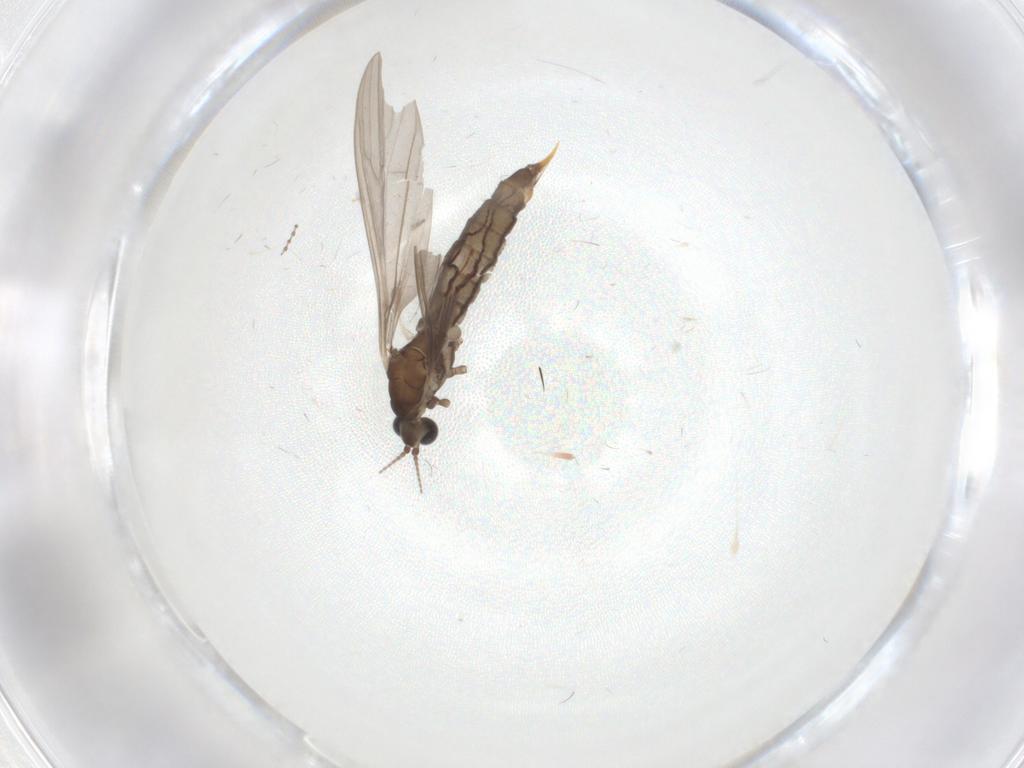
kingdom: Animalia
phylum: Arthropoda
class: Insecta
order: Diptera
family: Limoniidae
